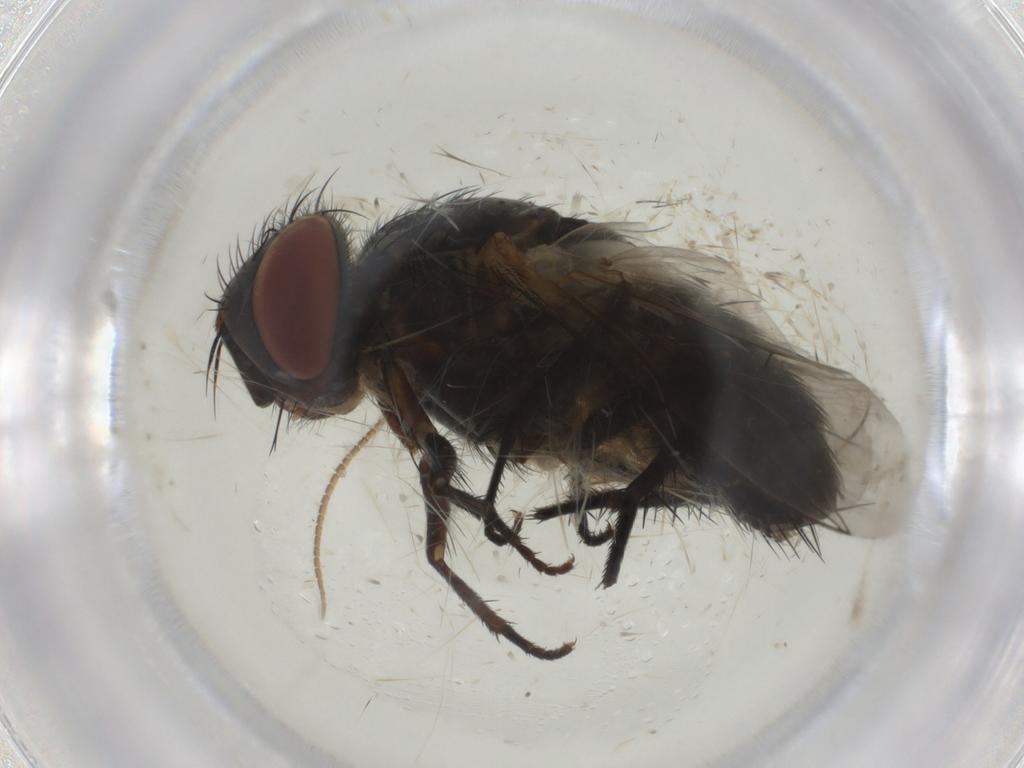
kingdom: Animalia
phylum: Arthropoda
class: Insecta
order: Diptera
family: Sarcophagidae
